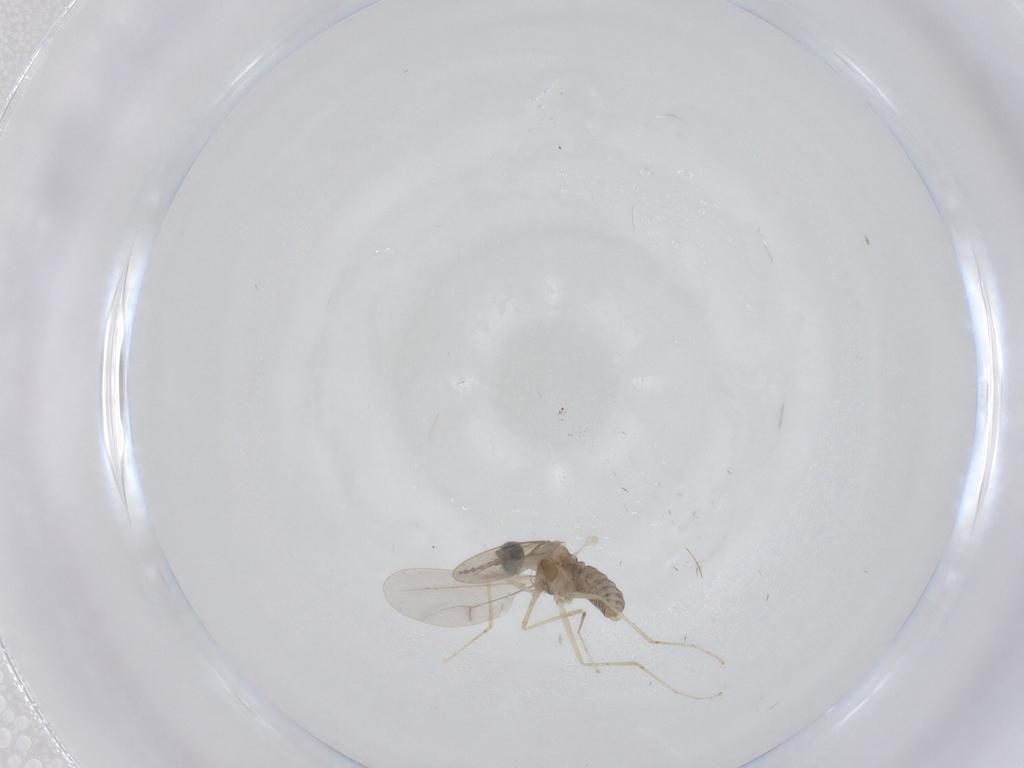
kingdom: Animalia
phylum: Arthropoda
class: Insecta
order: Diptera
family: Cecidomyiidae
